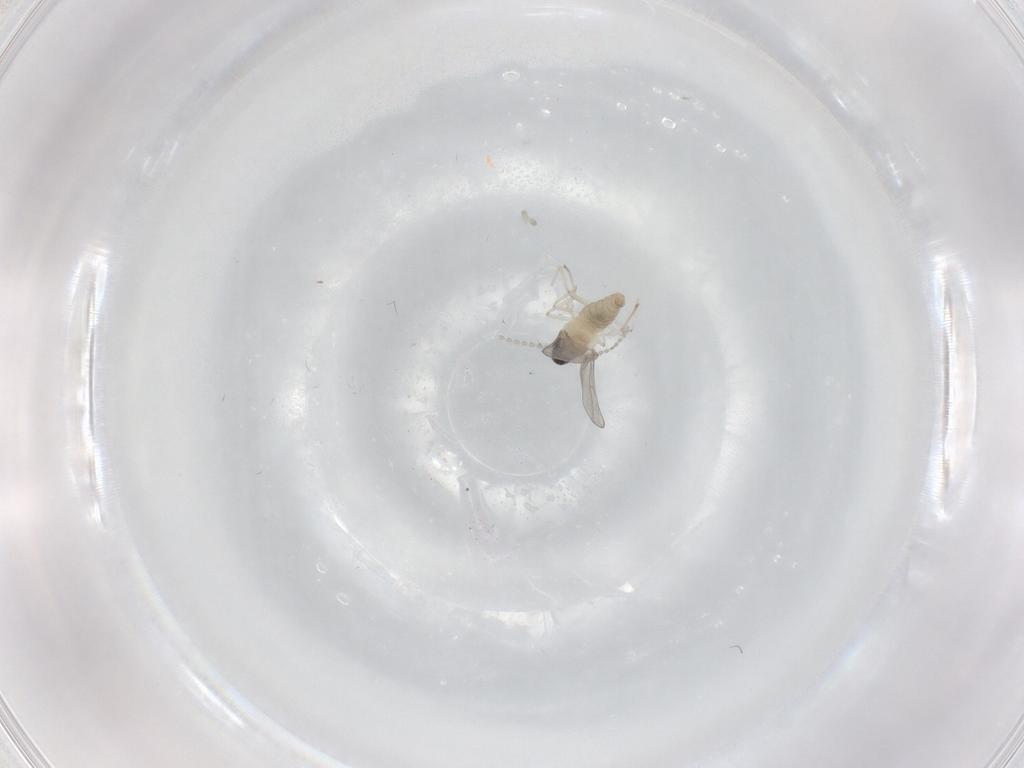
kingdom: Animalia
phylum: Arthropoda
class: Insecta
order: Diptera
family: Cecidomyiidae
